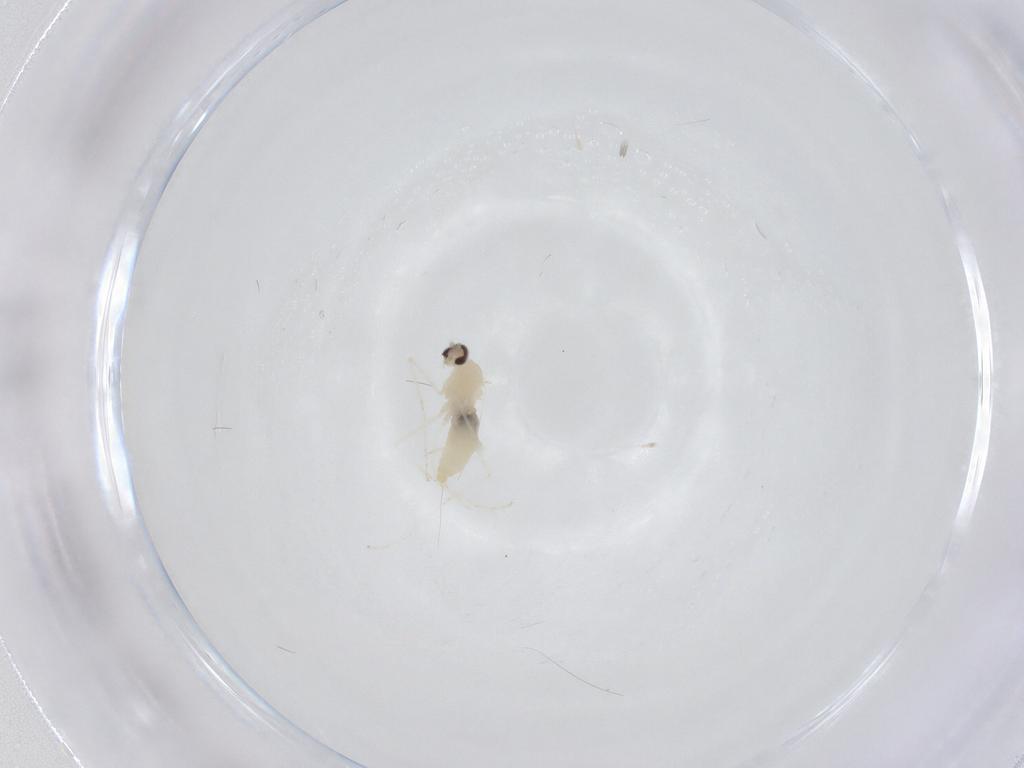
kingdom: Animalia
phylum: Arthropoda
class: Insecta
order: Diptera
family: Cecidomyiidae
